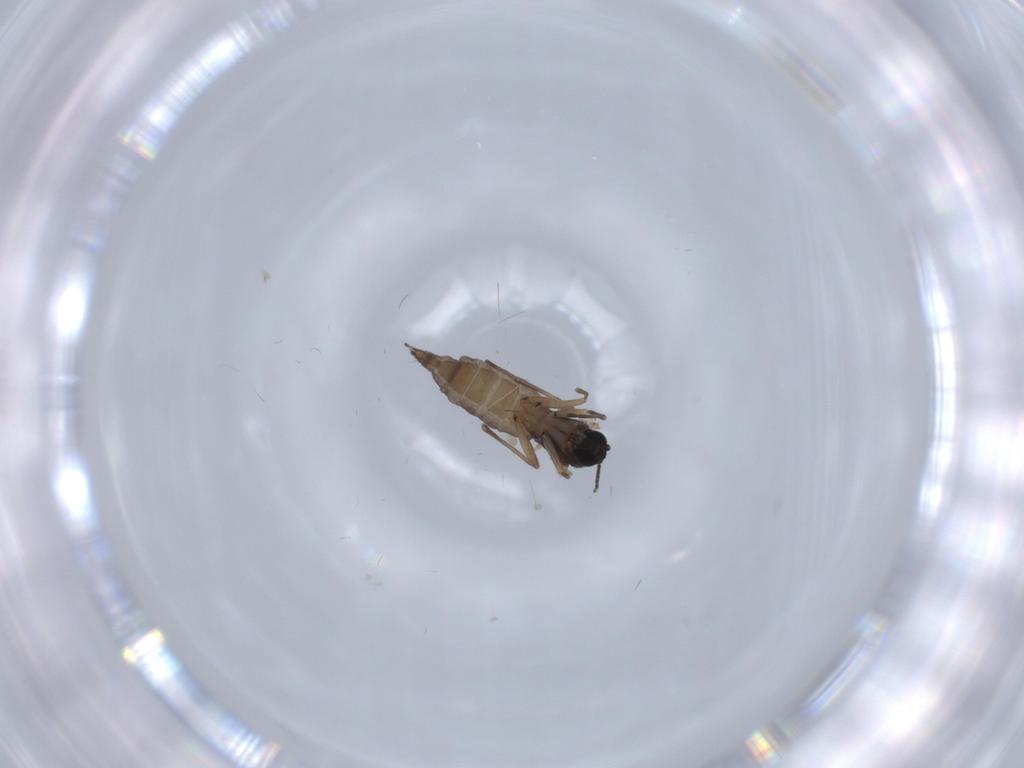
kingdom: Animalia
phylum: Arthropoda
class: Insecta
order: Diptera
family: Sciaridae
